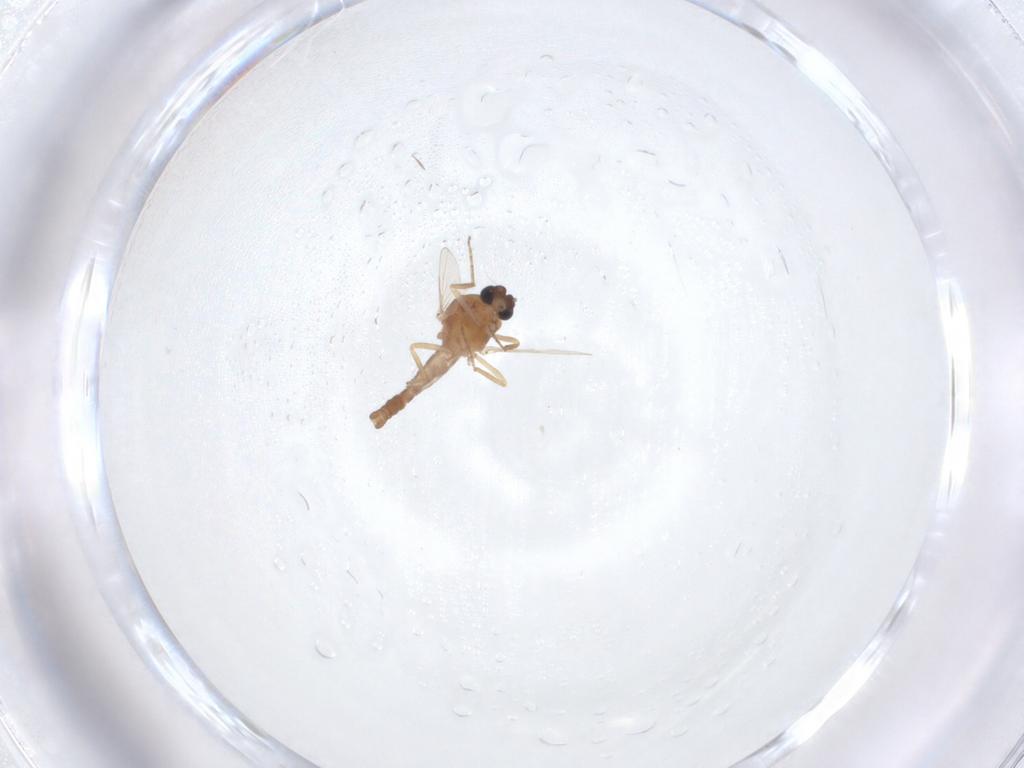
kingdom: Animalia
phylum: Arthropoda
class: Insecta
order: Diptera
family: Ceratopogonidae
